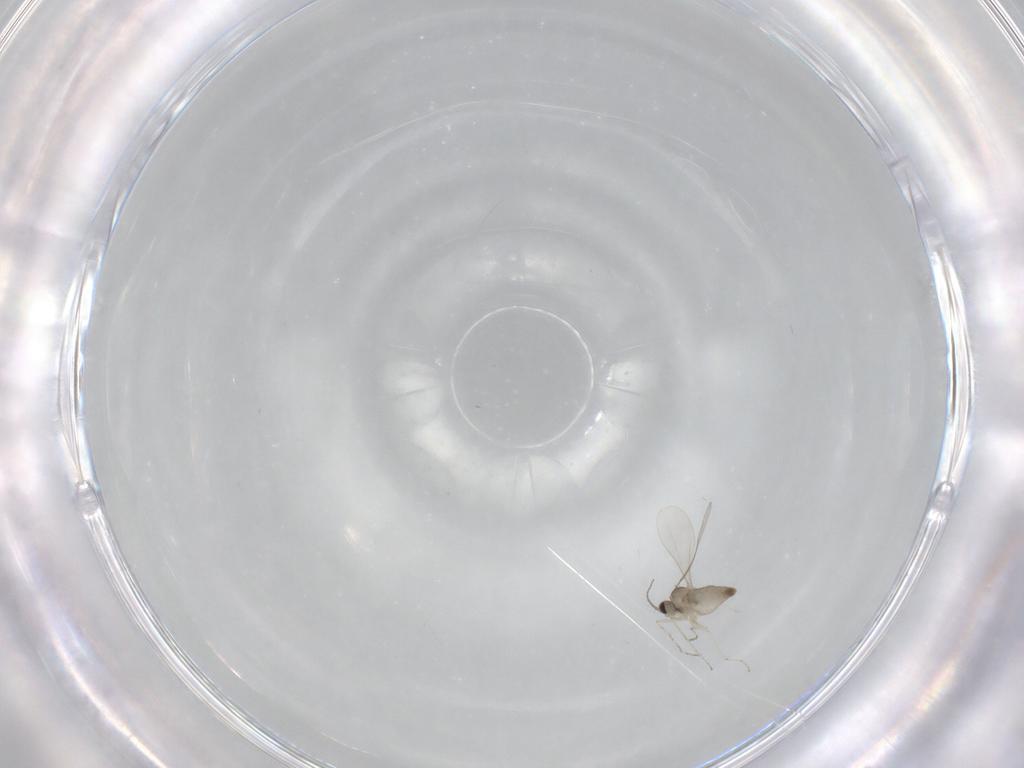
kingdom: Animalia
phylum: Arthropoda
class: Insecta
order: Diptera
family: Chironomidae
